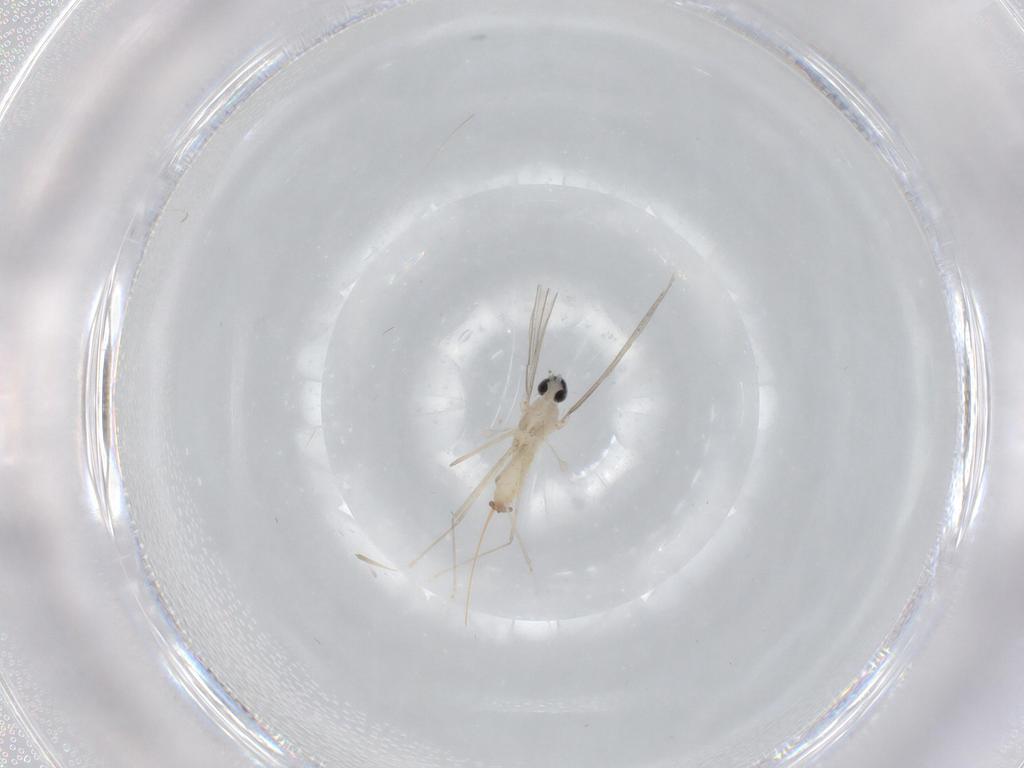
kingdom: Animalia
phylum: Arthropoda
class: Insecta
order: Diptera
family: Cecidomyiidae
